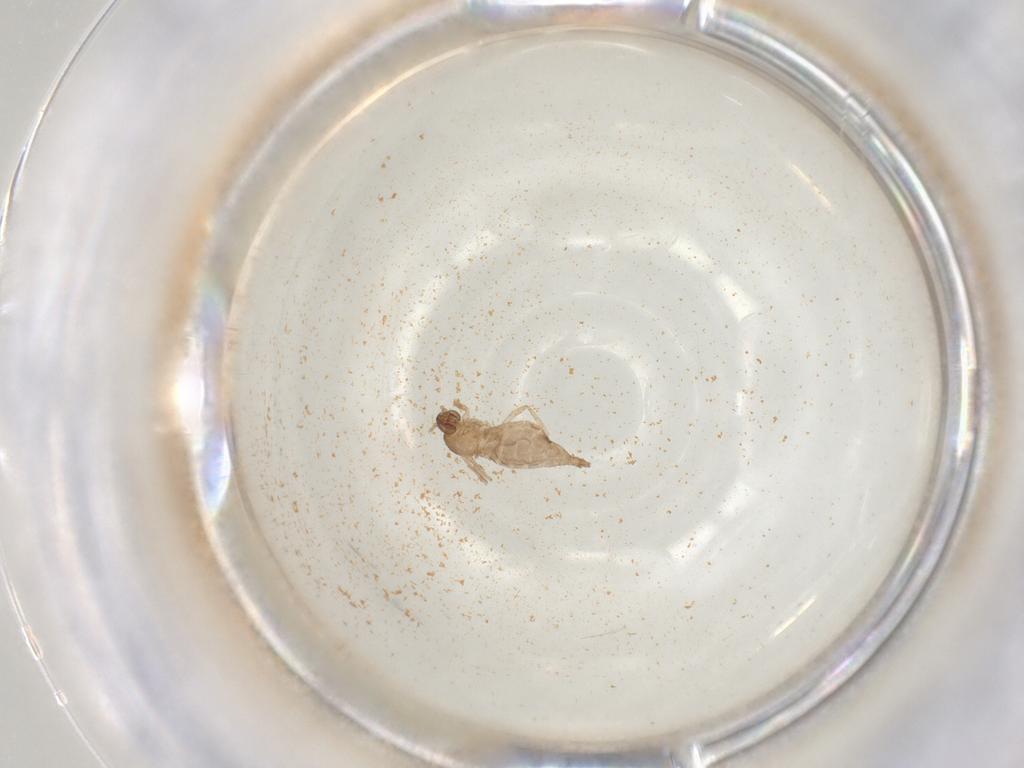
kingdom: Animalia
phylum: Arthropoda
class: Insecta
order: Diptera
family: Cecidomyiidae
